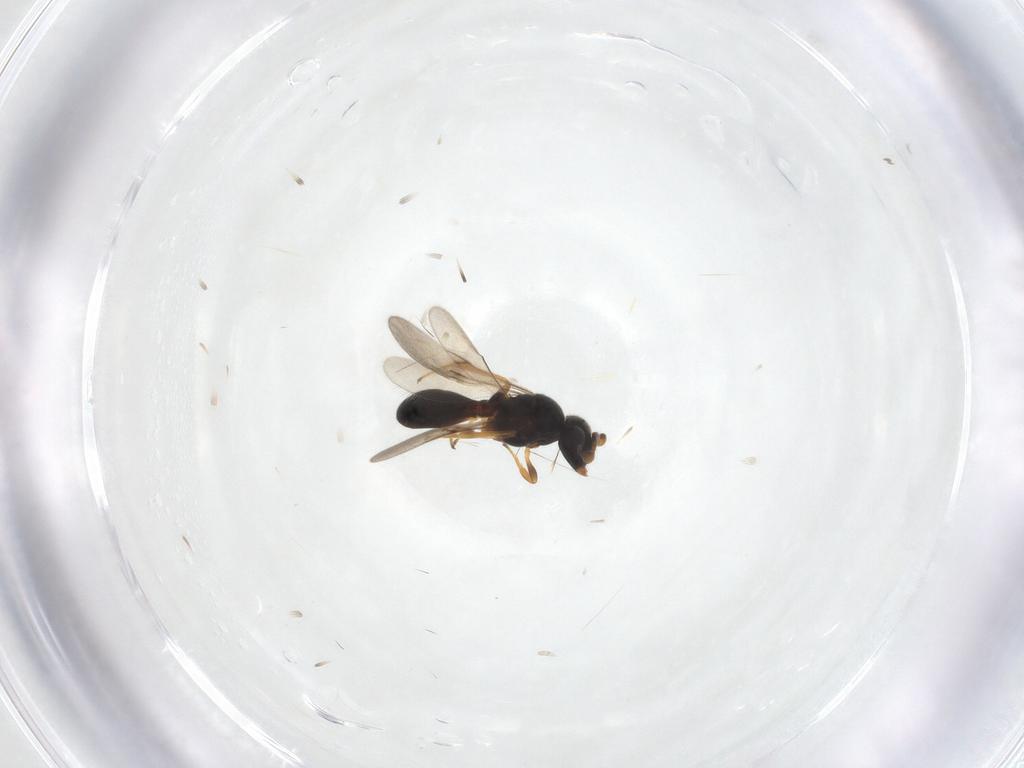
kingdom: Animalia
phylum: Arthropoda
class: Insecta
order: Hymenoptera
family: Scelionidae
